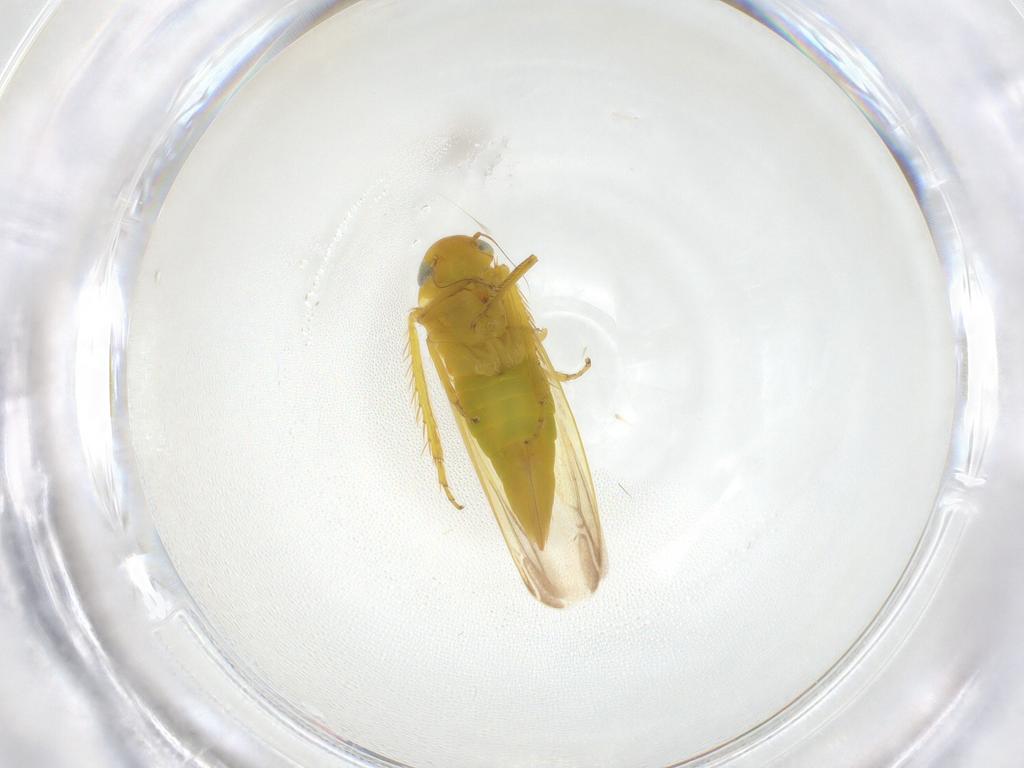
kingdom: Animalia
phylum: Arthropoda
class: Insecta
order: Hemiptera
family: Cicadellidae
